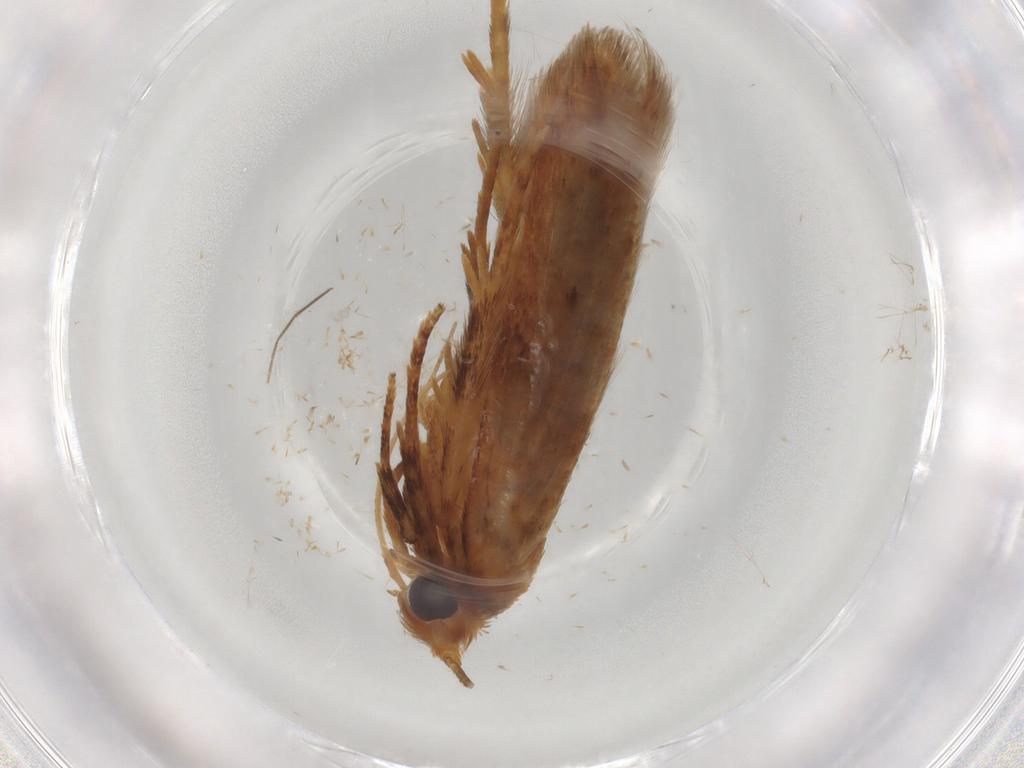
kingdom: Animalia
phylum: Arthropoda
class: Insecta
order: Lepidoptera
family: Blastobasidae
